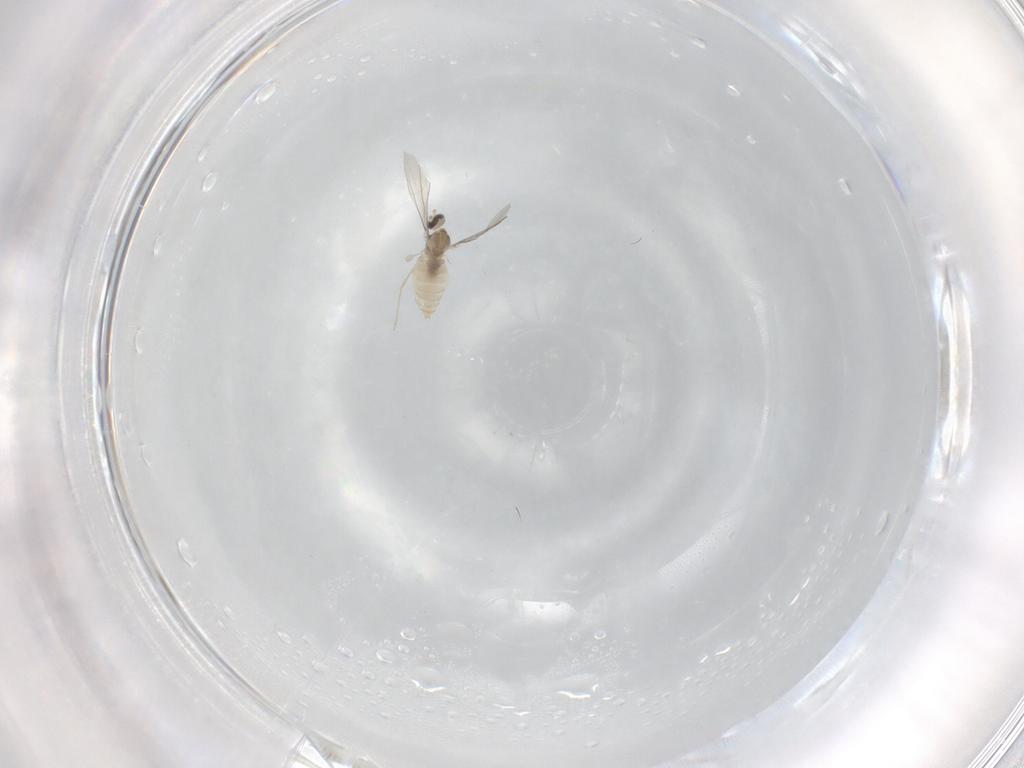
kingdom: Animalia
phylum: Arthropoda
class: Insecta
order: Diptera
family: Cecidomyiidae
